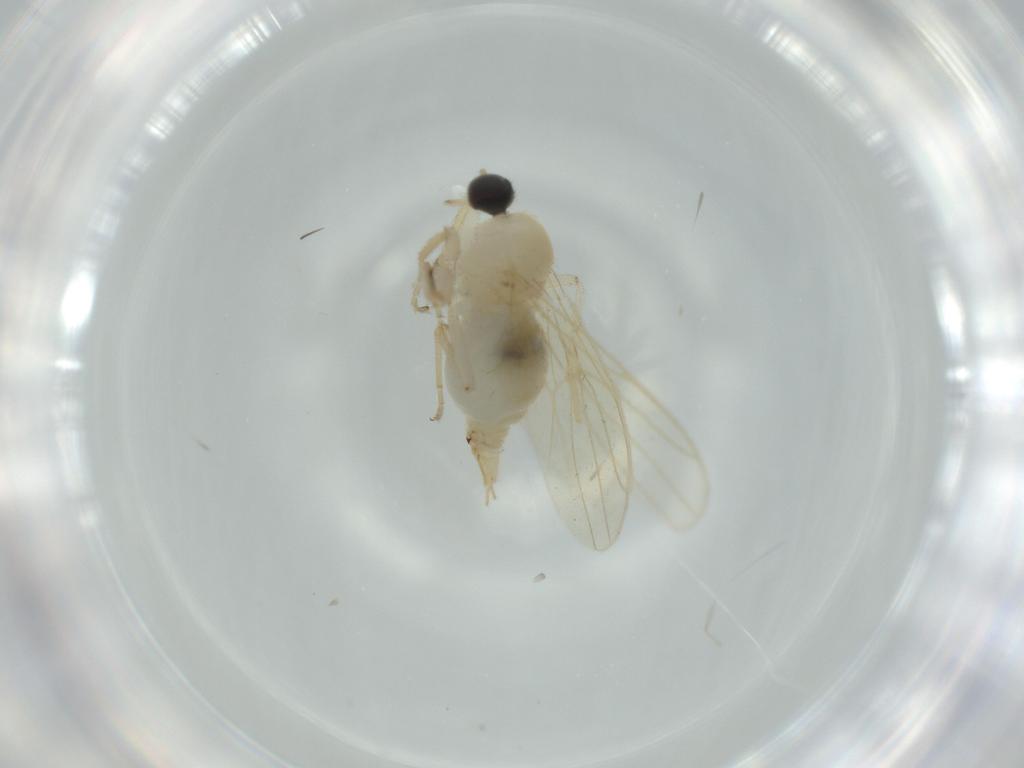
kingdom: Animalia
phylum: Arthropoda
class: Insecta
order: Diptera
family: Hybotidae
